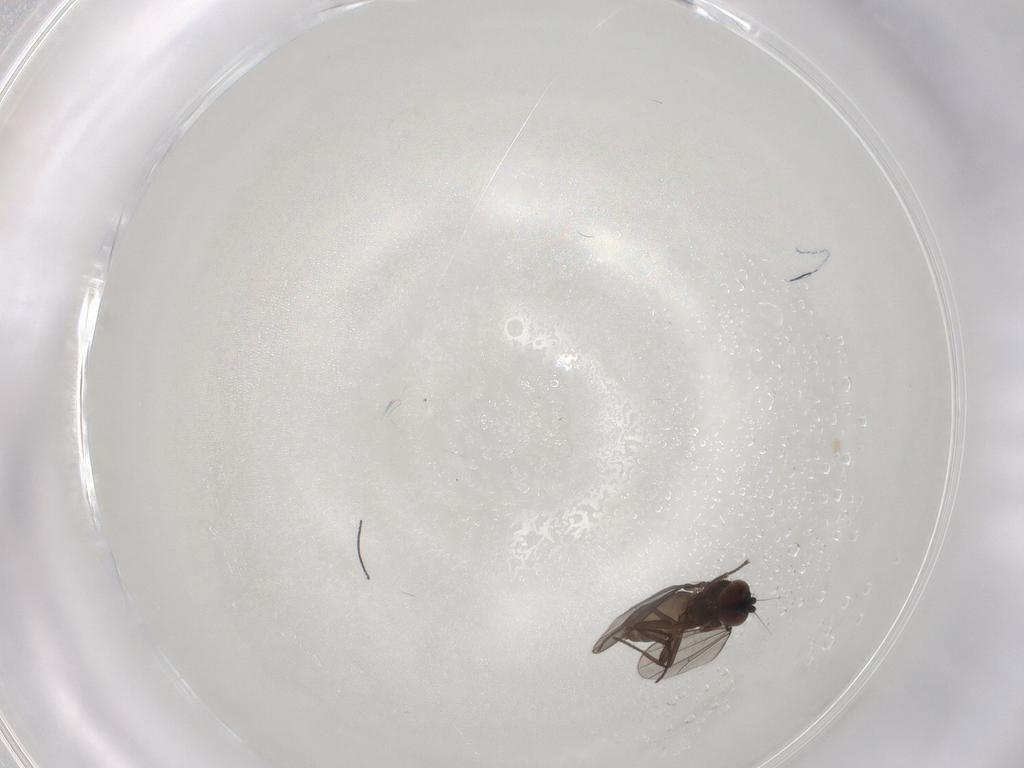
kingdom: Animalia
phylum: Arthropoda
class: Insecta
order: Diptera
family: Dolichopodidae
